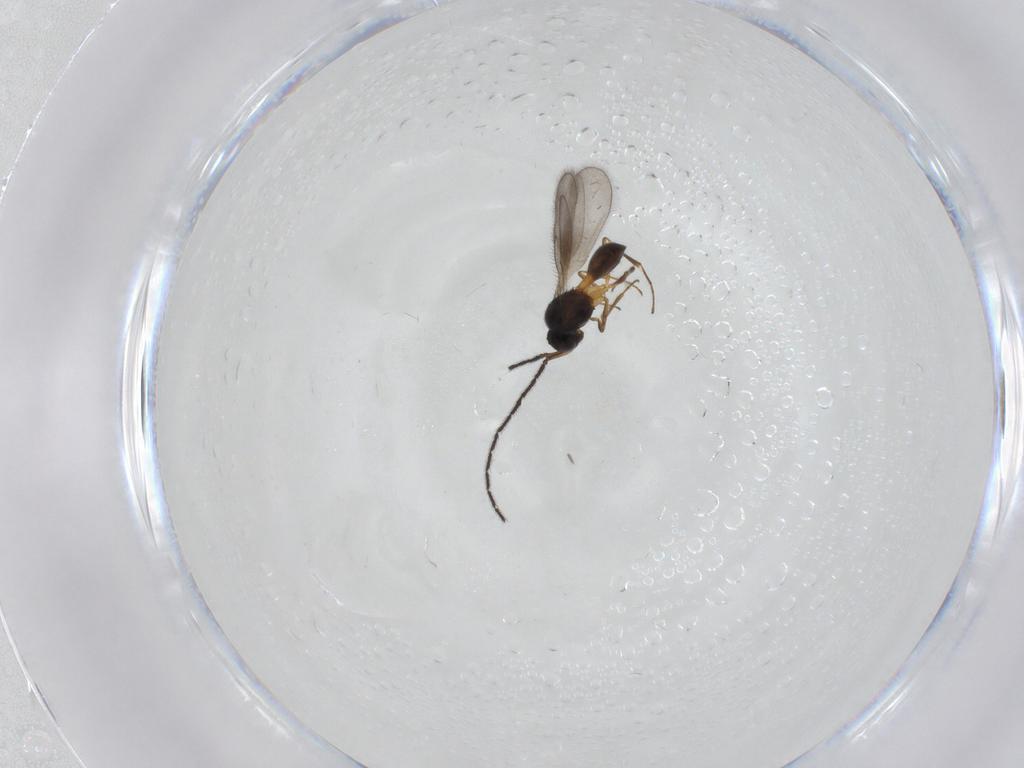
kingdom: Animalia
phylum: Arthropoda
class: Insecta
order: Hymenoptera
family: Scelionidae
